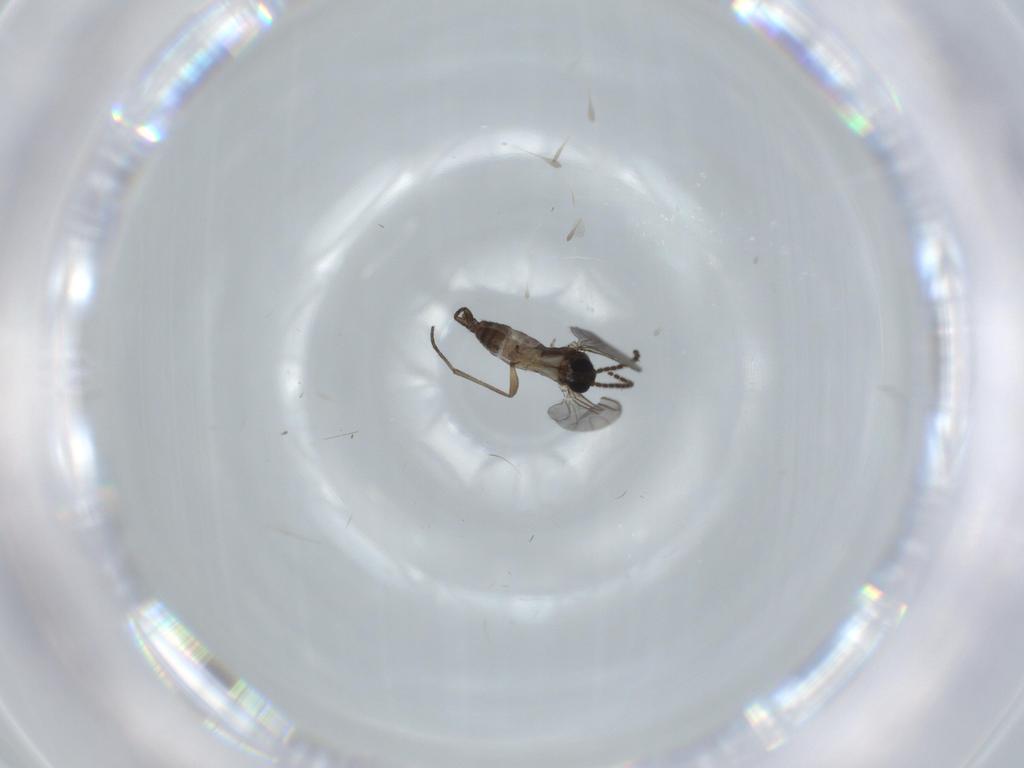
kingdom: Animalia
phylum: Arthropoda
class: Insecta
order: Diptera
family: Sciaridae
